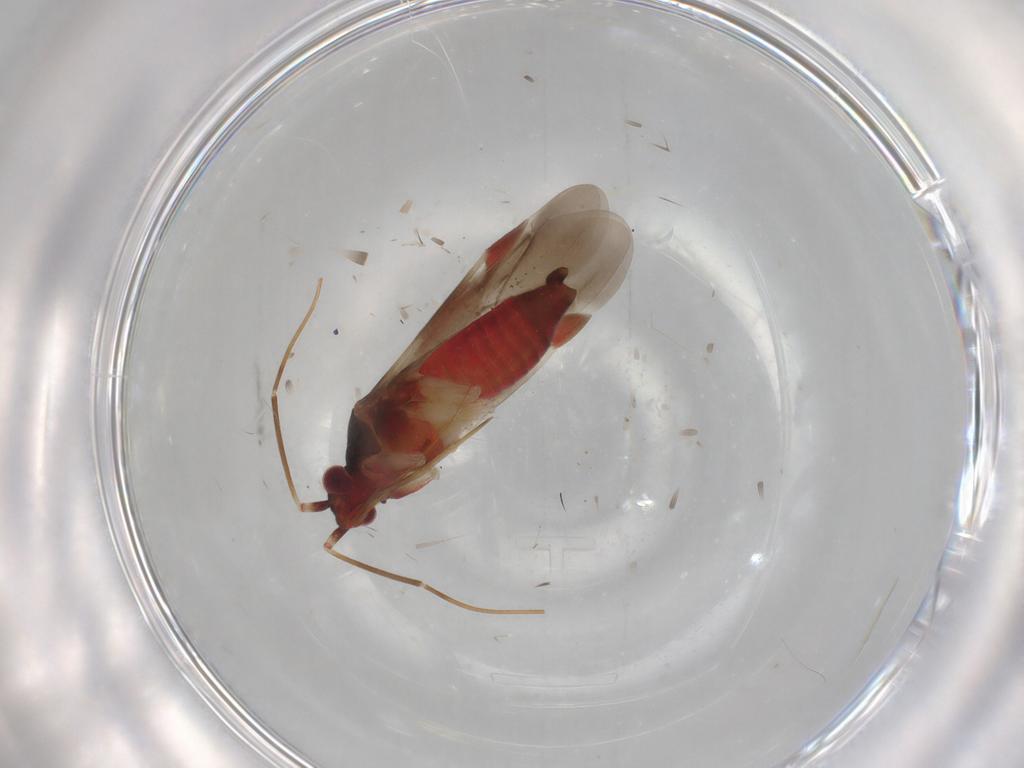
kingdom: Animalia
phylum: Arthropoda
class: Insecta
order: Hemiptera
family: Miridae
